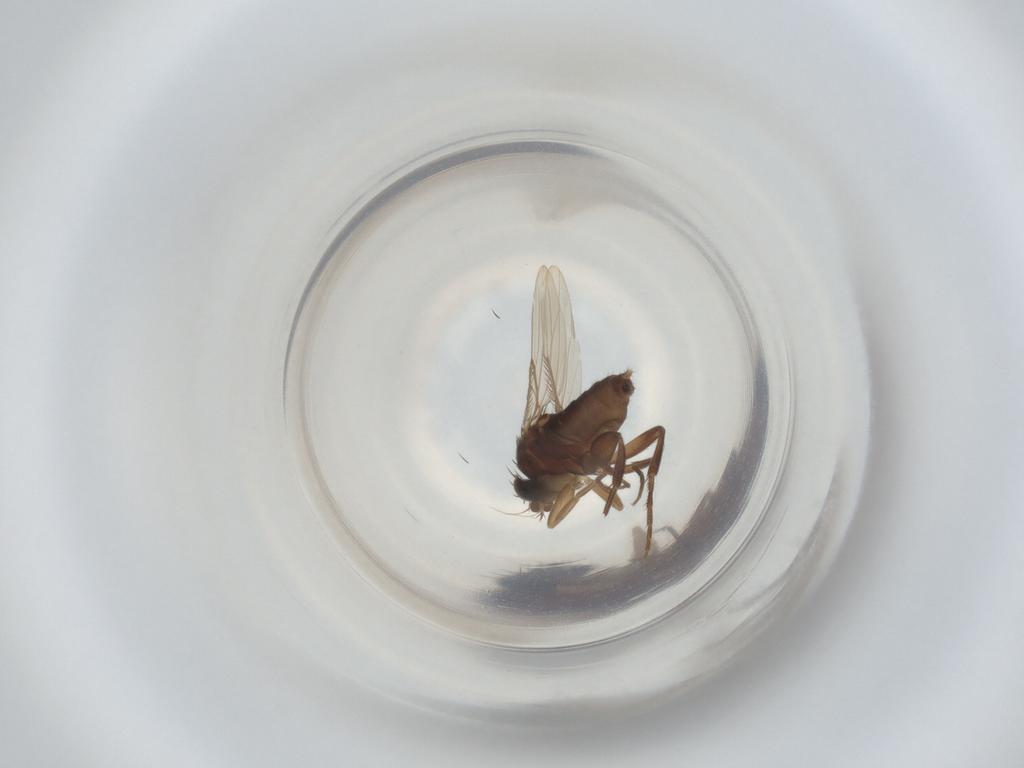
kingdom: Animalia
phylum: Arthropoda
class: Insecta
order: Diptera
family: Phoridae
